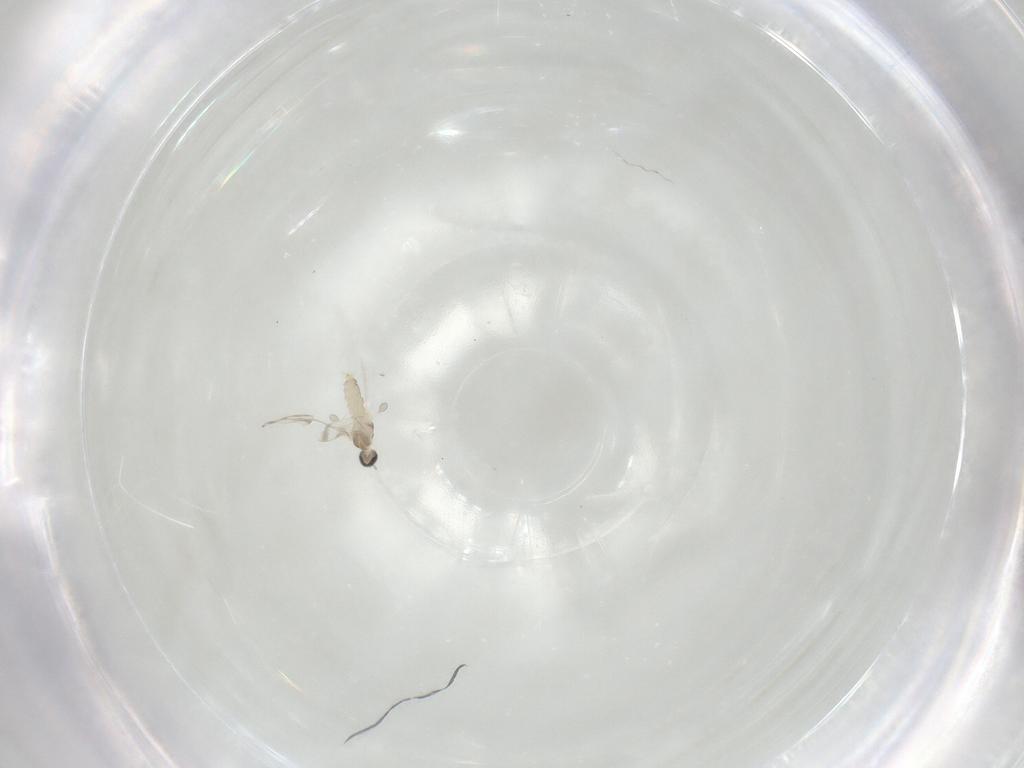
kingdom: Animalia
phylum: Arthropoda
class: Insecta
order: Diptera
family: Cecidomyiidae
